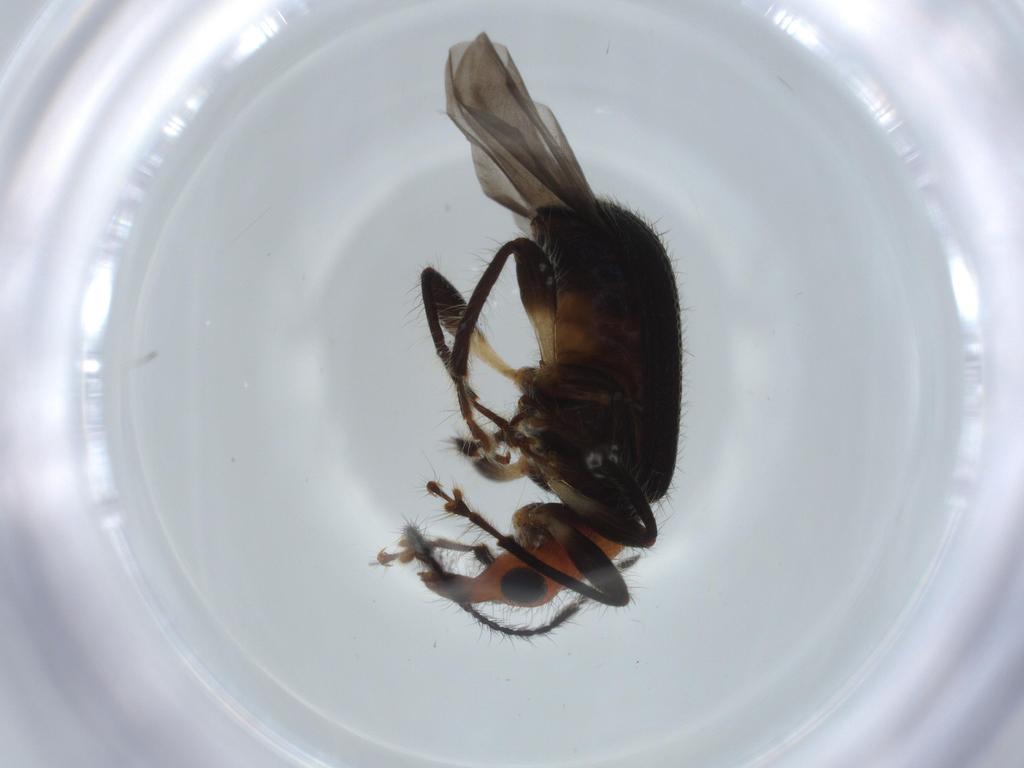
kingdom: Animalia
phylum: Arthropoda
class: Insecta
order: Coleoptera
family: Attelabidae
